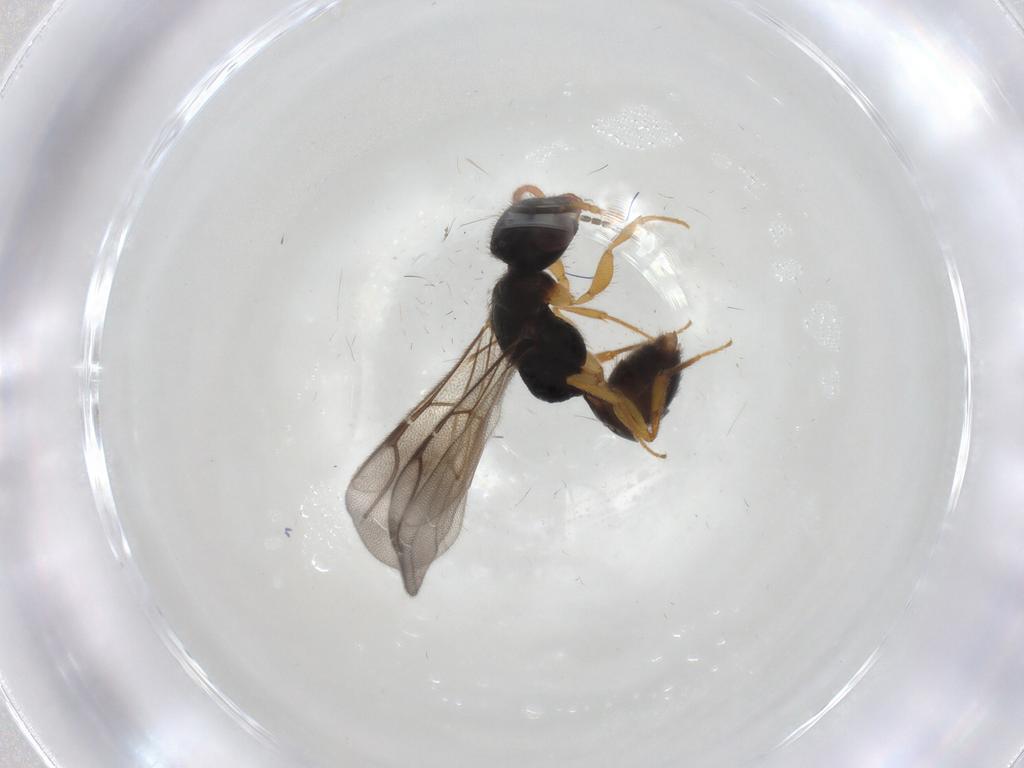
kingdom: Animalia
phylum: Arthropoda
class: Insecta
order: Hymenoptera
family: Bethylidae
